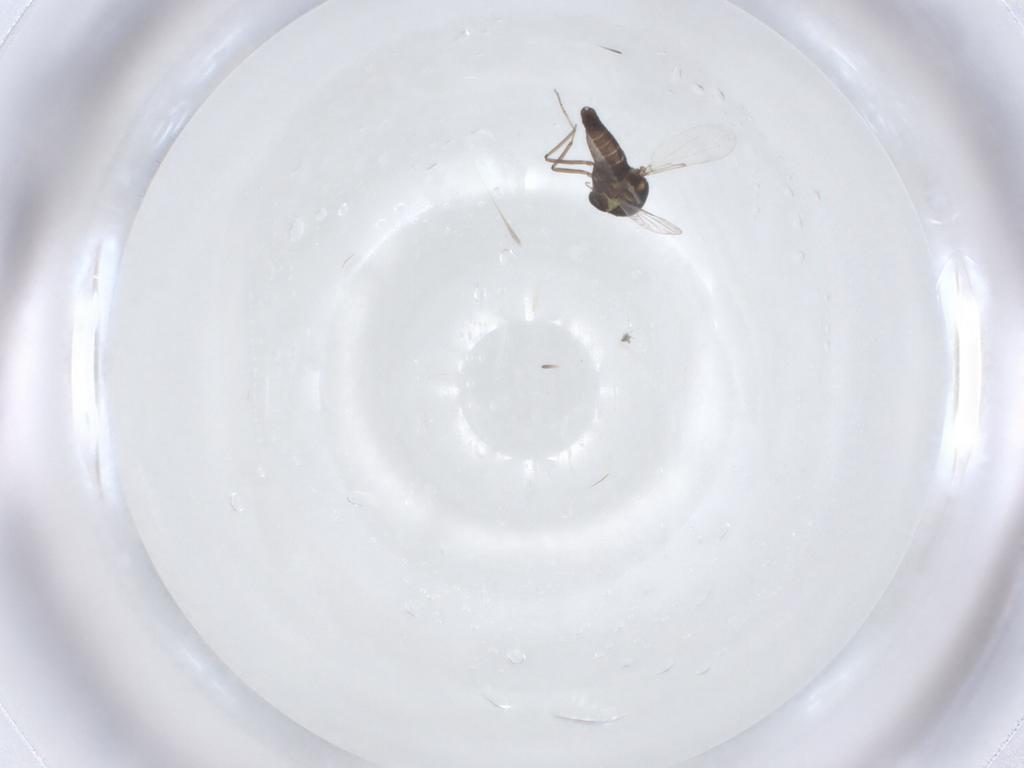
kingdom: Animalia
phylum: Arthropoda
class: Insecta
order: Diptera
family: Ceratopogonidae
